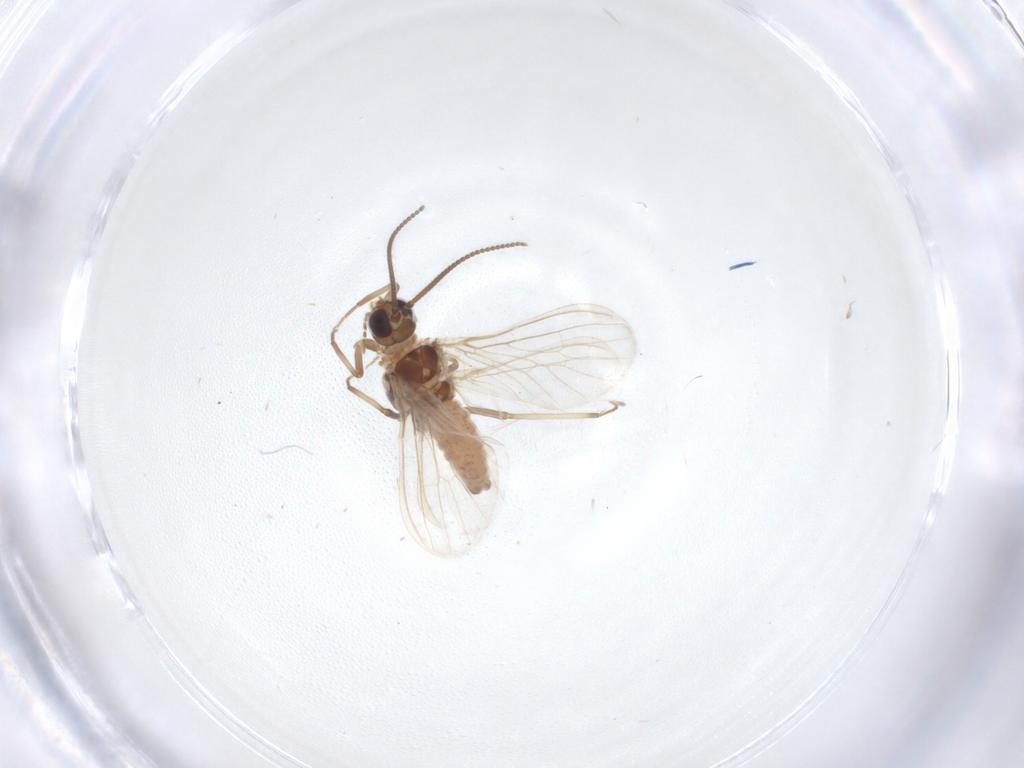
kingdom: Animalia
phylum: Arthropoda
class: Insecta
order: Neuroptera
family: Coniopterygidae
